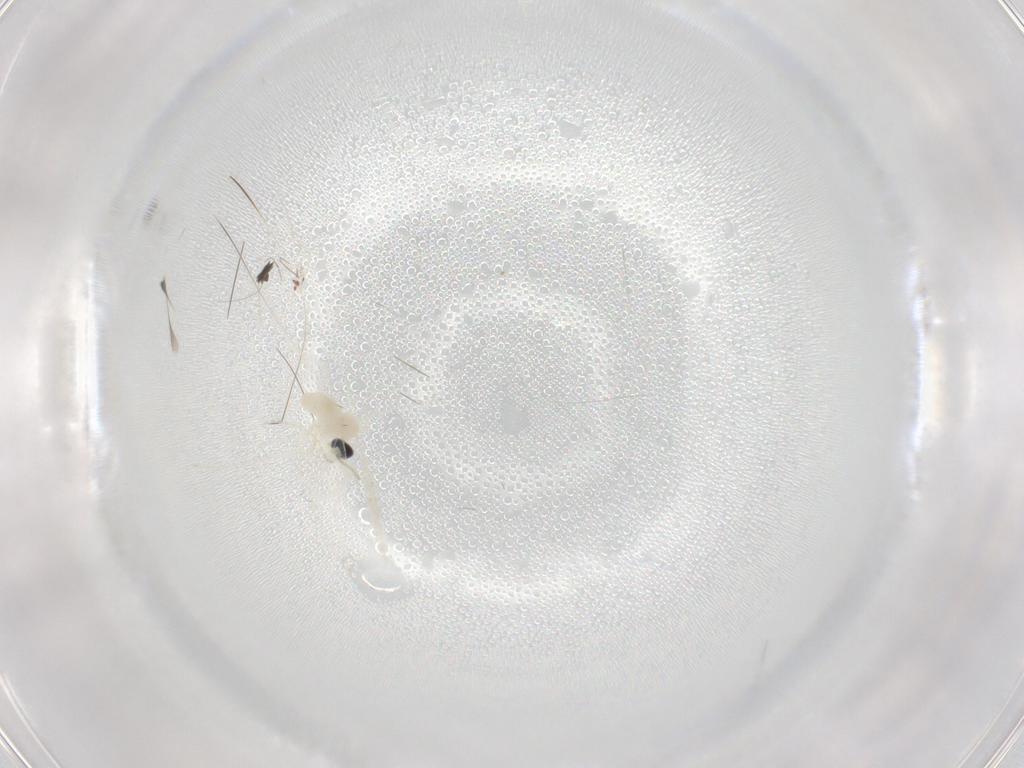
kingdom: Animalia
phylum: Arthropoda
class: Insecta
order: Diptera
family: Cecidomyiidae
